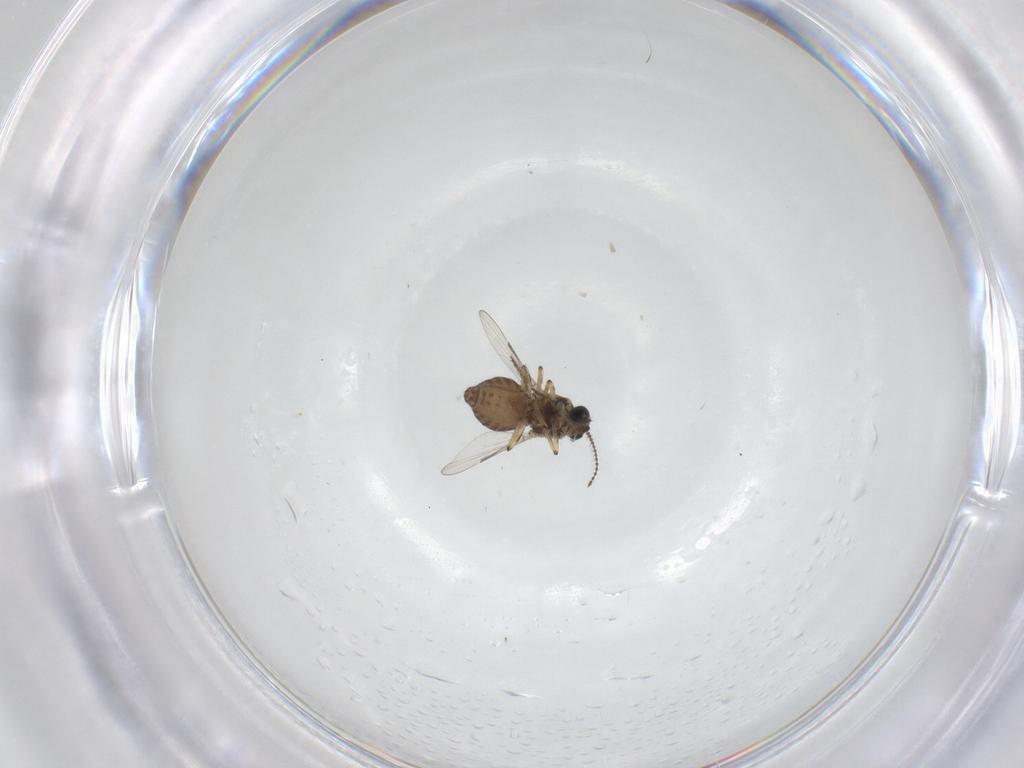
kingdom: Animalia
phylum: Arthropoda
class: Insecta
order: Diptera
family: Ceratopogonidae
